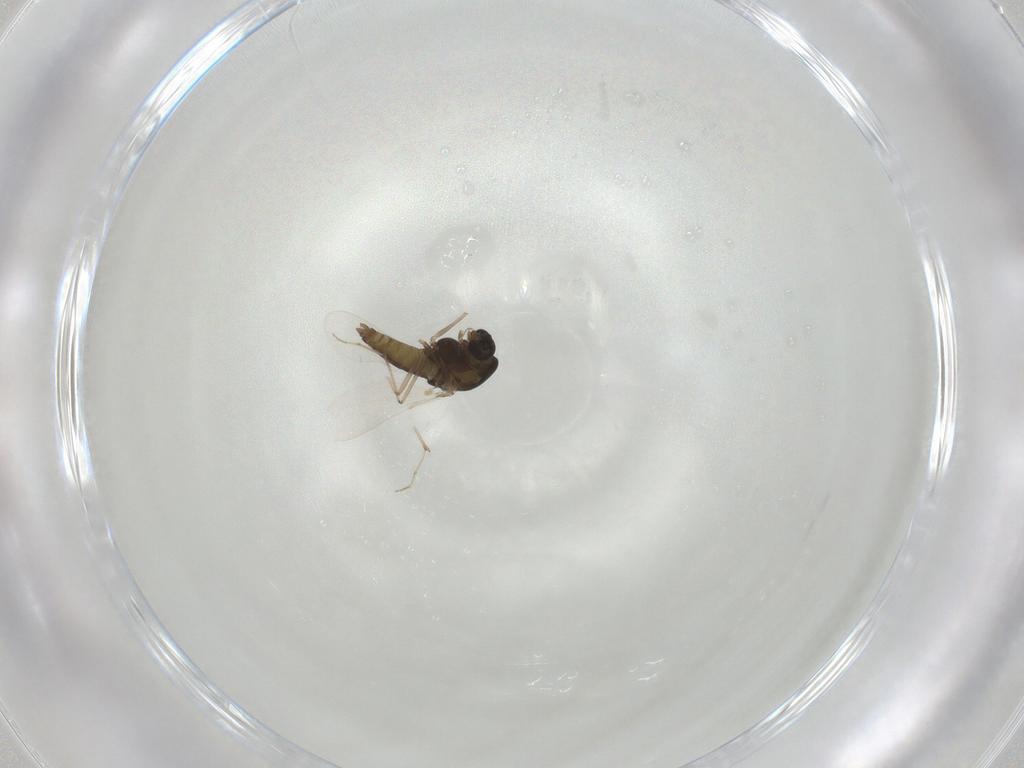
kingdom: Animalia
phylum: Arthropoda
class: Insecta
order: Diptera
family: Chironomidae
